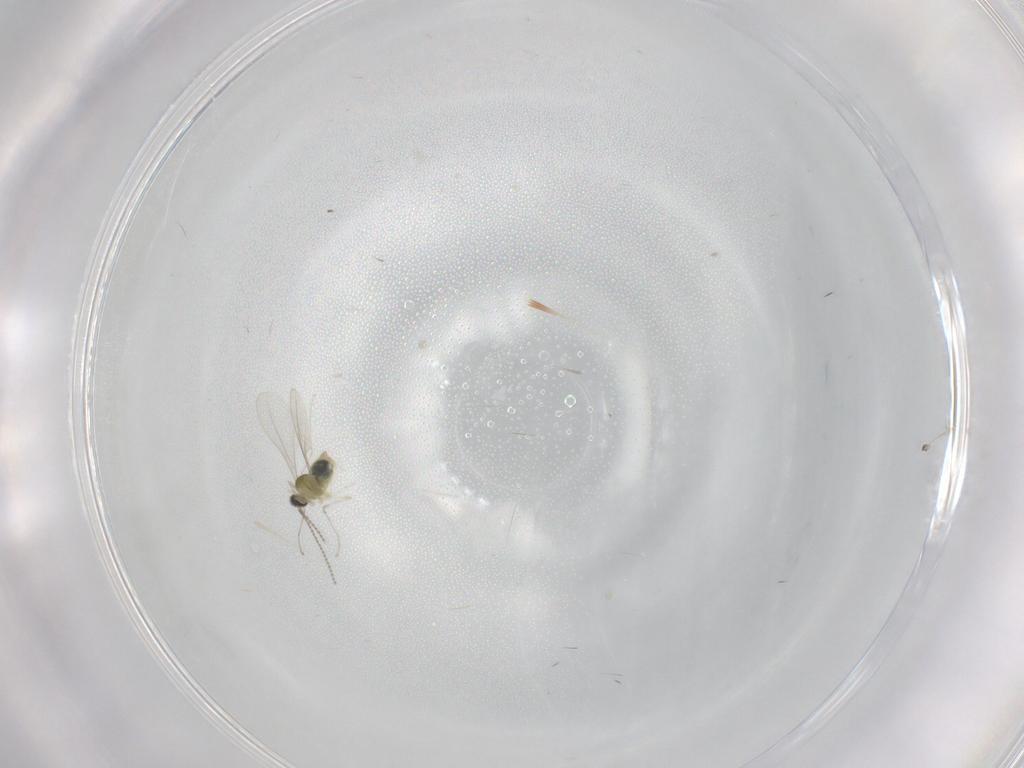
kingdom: Animalia
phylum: Arthropoda
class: Insecta
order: Diptera
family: Cecidomyiidae
